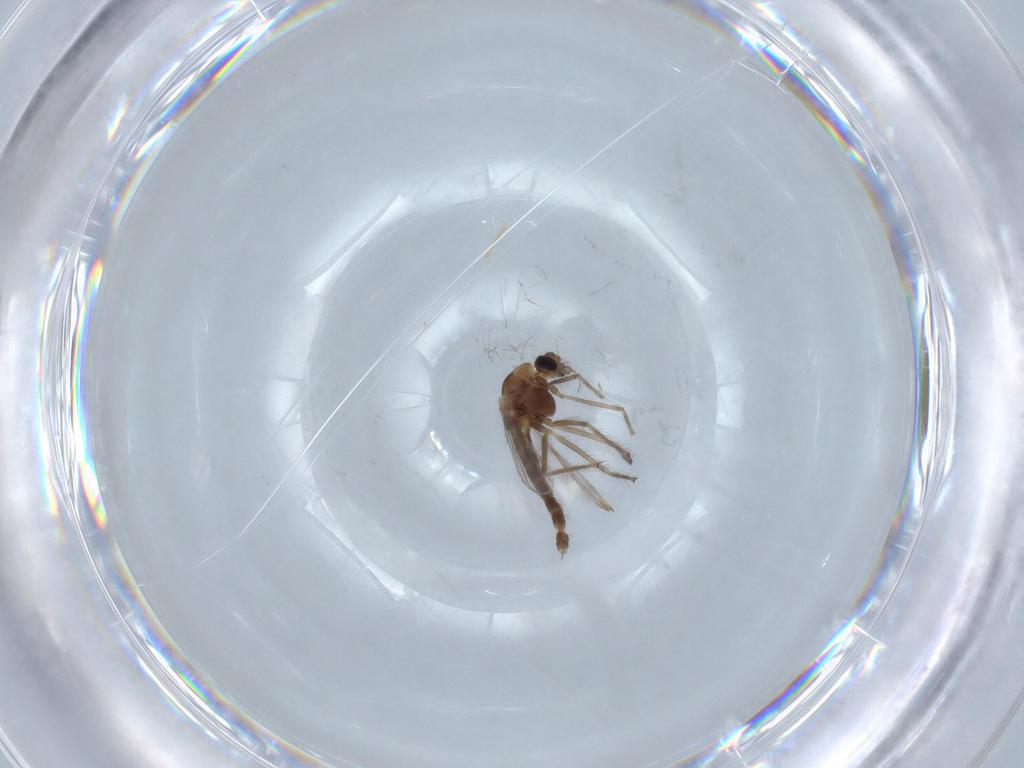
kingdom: Animalia
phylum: Arthropoda
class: Insecta
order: Diptera
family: Chironomidae
